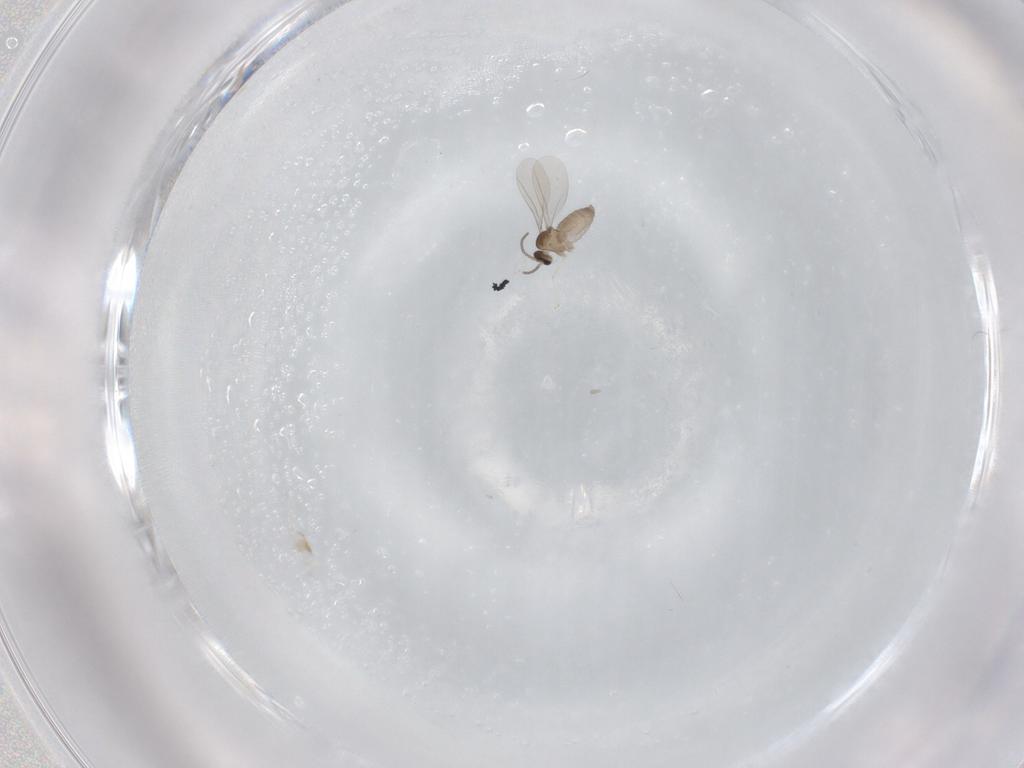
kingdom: Animalia
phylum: Arthropoda
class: Insecta
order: Diptera
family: Cecidomyiidae
